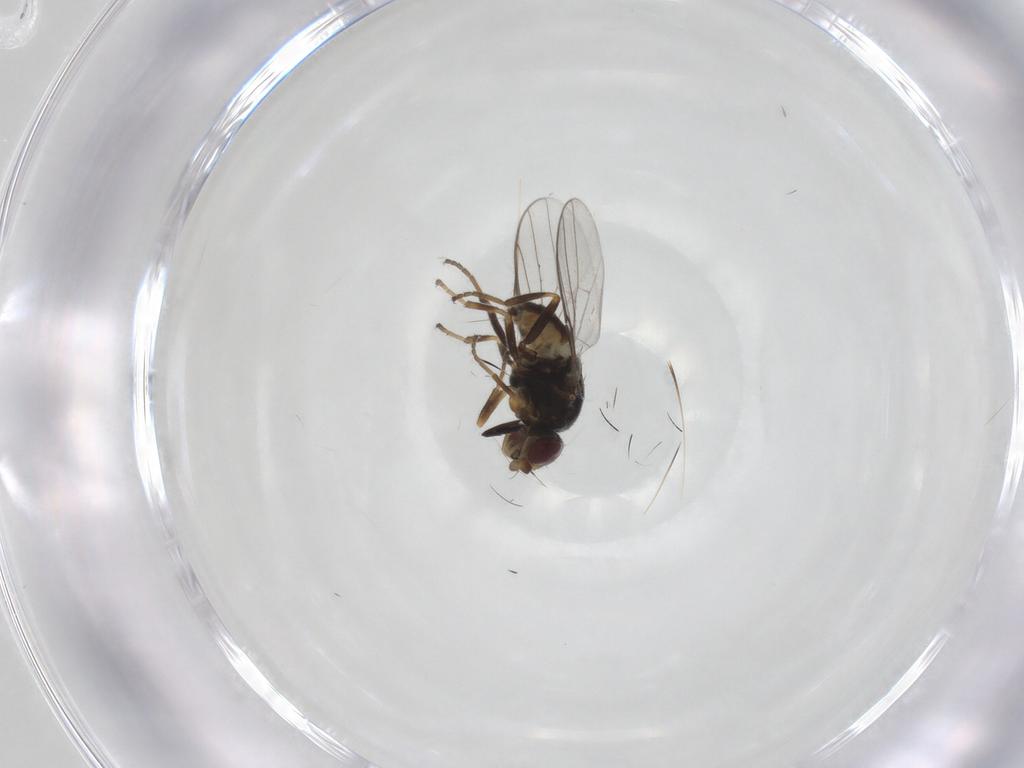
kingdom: Animalia
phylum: Arthropoda
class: Insecta
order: Diptera
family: Chloropidae
